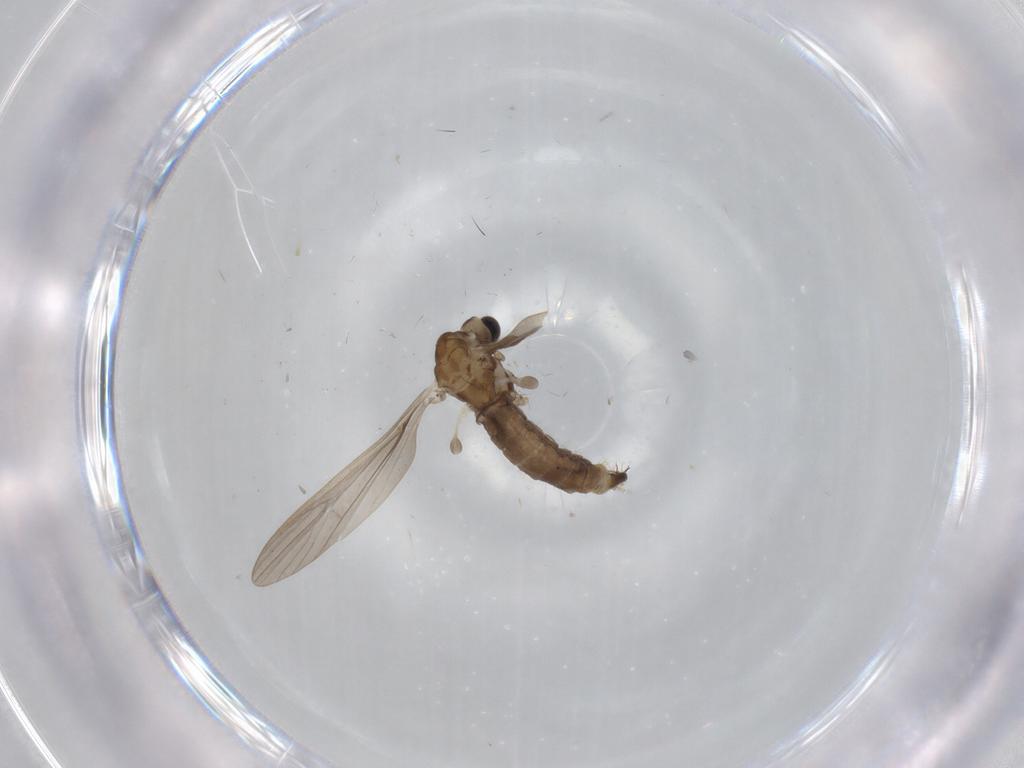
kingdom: Animalia
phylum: Arthropoda
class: Insecta
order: Diptera
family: Limoniidae
